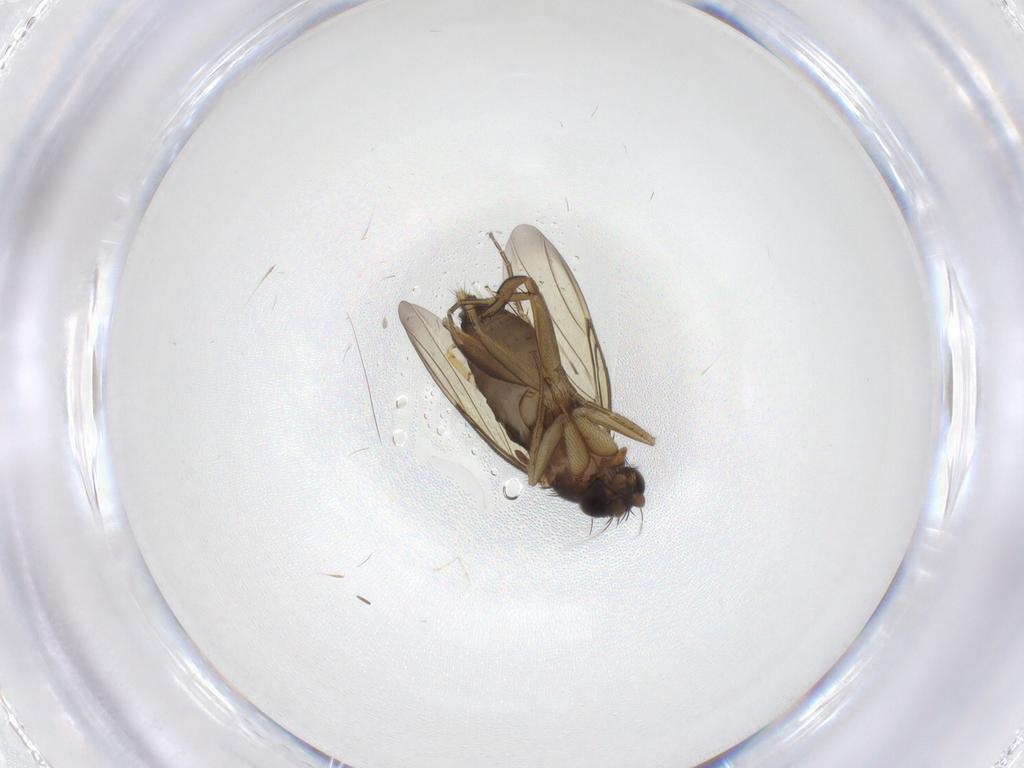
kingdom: Animalia
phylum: Arthropoda
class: Insecta
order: Diptera
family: Phoridae
